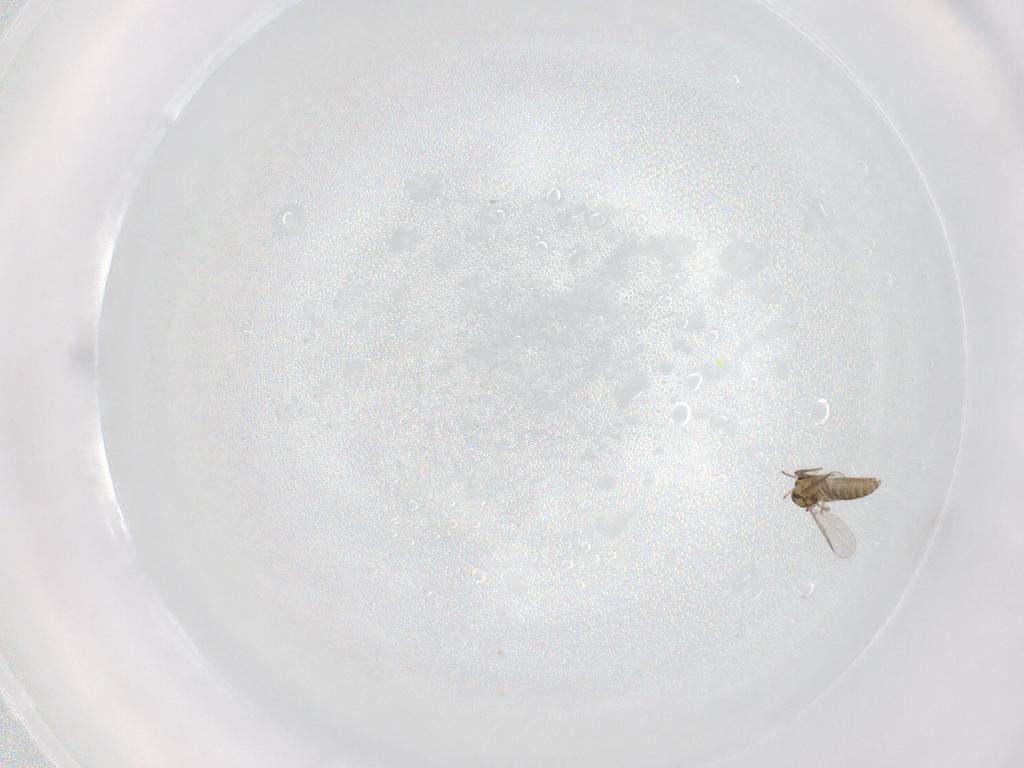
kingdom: Animalia
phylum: Arthropoda
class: Insecta
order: Diptera
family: Chironomidae
